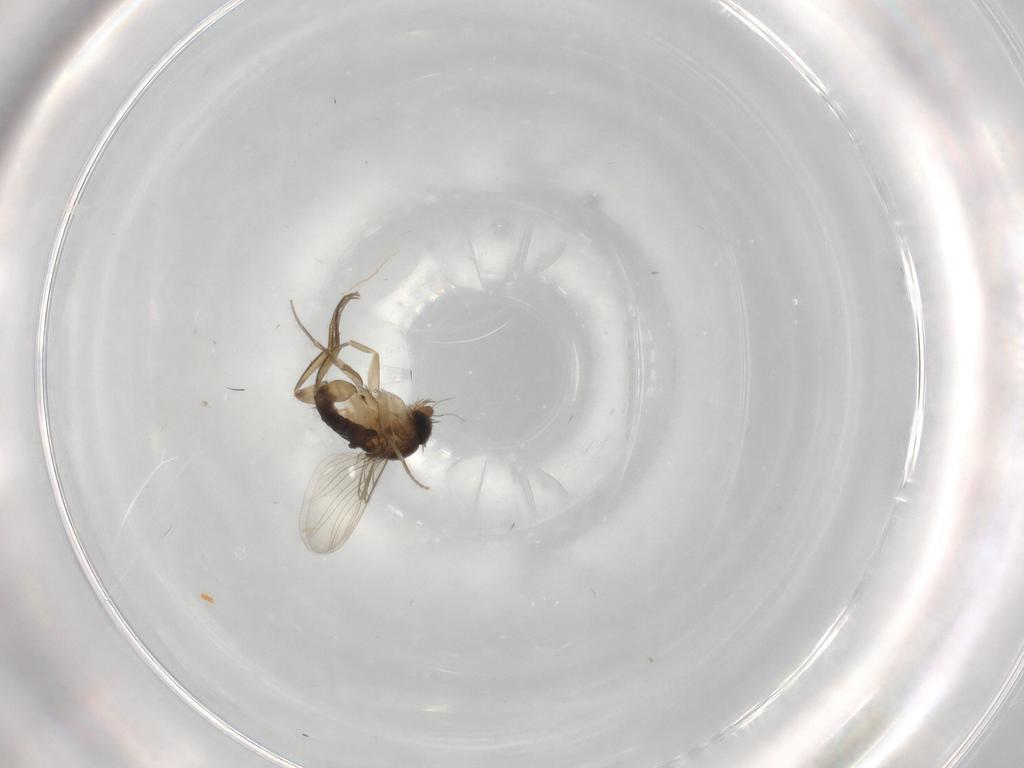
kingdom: Animalia
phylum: Arthropoda
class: Insecta
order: Diptera
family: Phoridae
